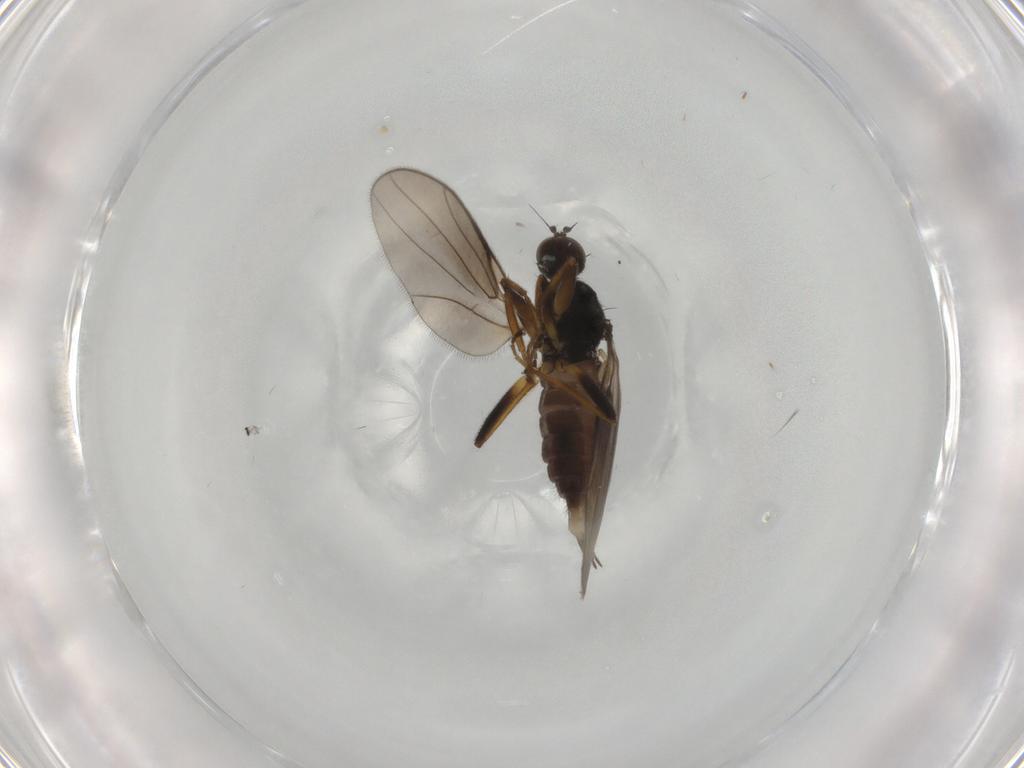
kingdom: Animalia
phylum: Arthropoda
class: Insecta
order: Diptera
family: Hybotidae
